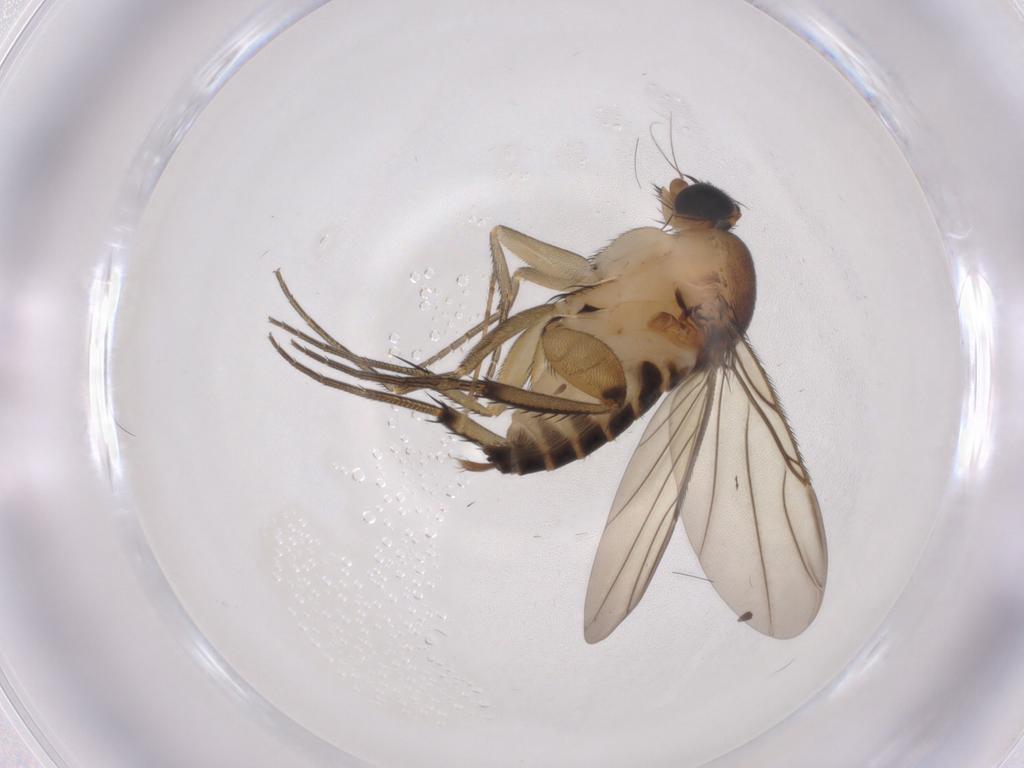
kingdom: Animalia
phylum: Arthropoda
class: Insecta
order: Diptera
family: Phoridae
